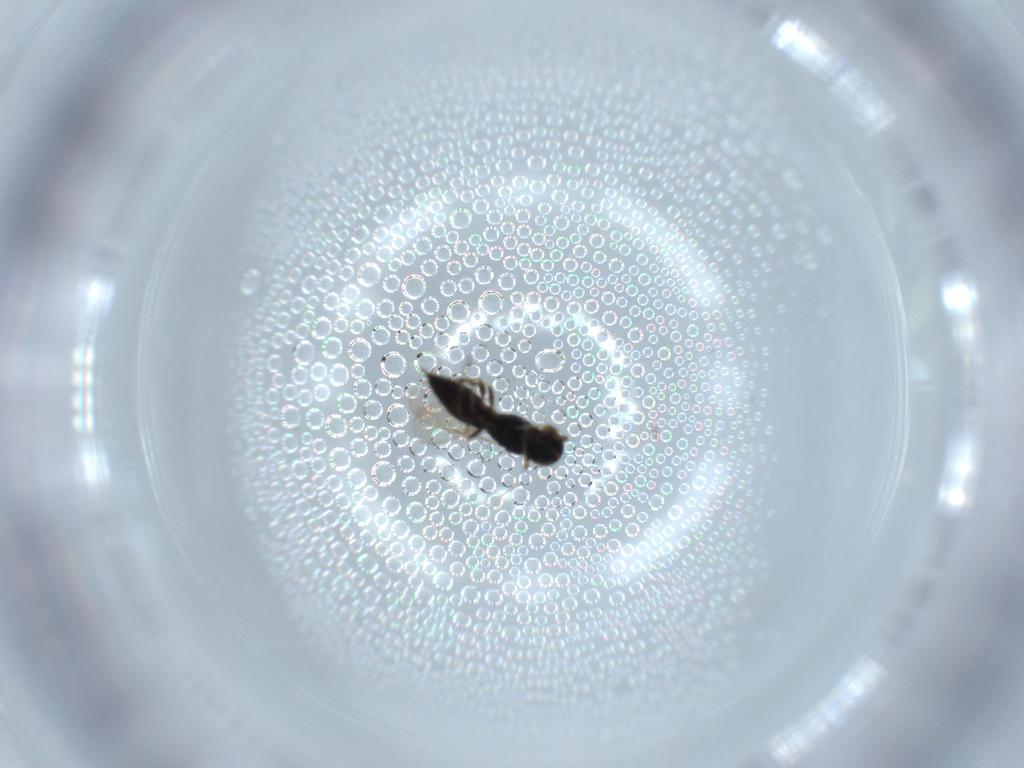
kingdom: Animalia
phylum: Arthropoda
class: Insecta
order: Hymenoptera
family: Scelionidae
